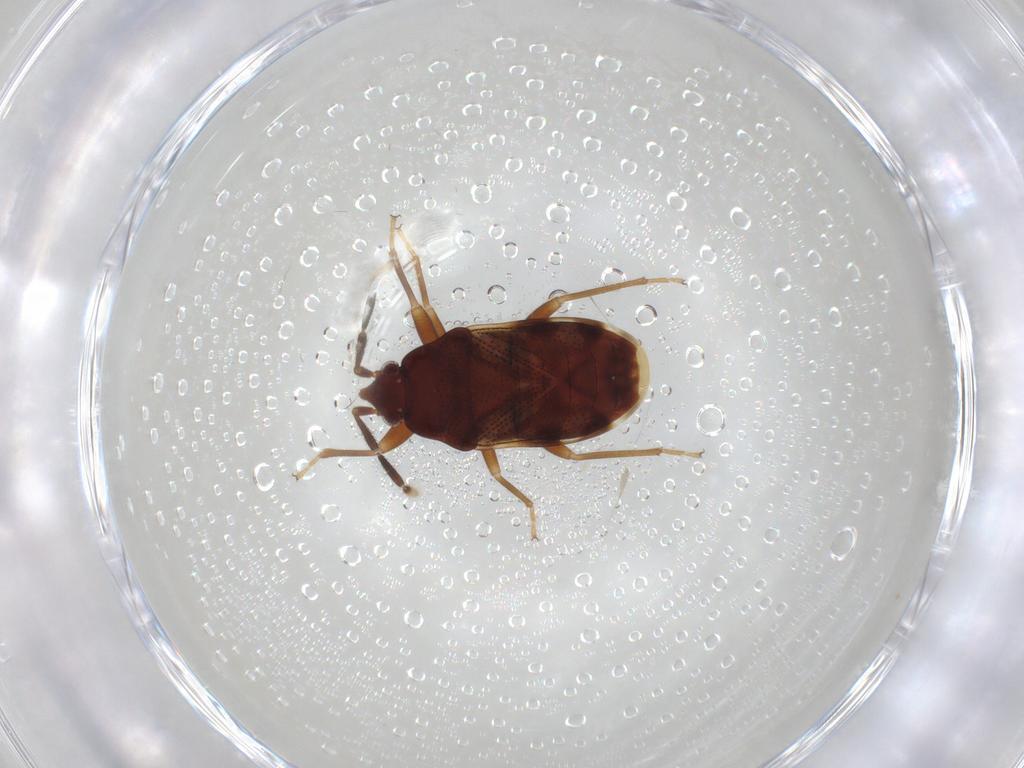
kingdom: Animalia
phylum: Arthropoda
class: Insecta
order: Hemiptera
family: Rhyparochromidae
